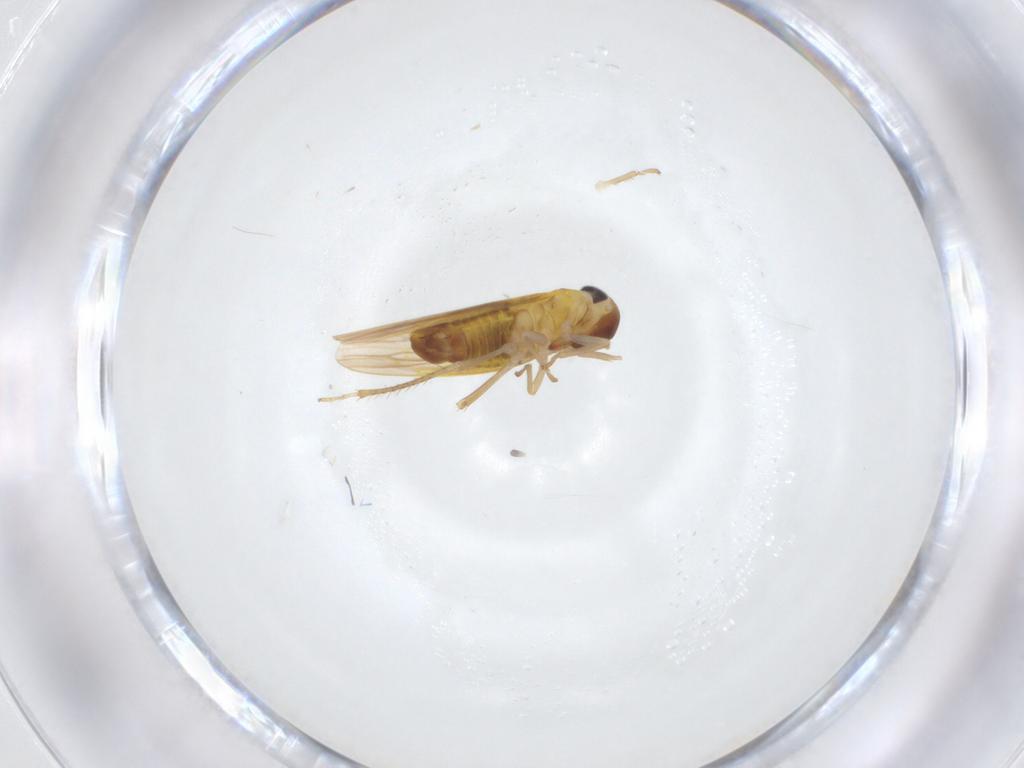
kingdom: Animalia
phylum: Arthropoda
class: Insecta
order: Hemiptera
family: Cicadellidae
